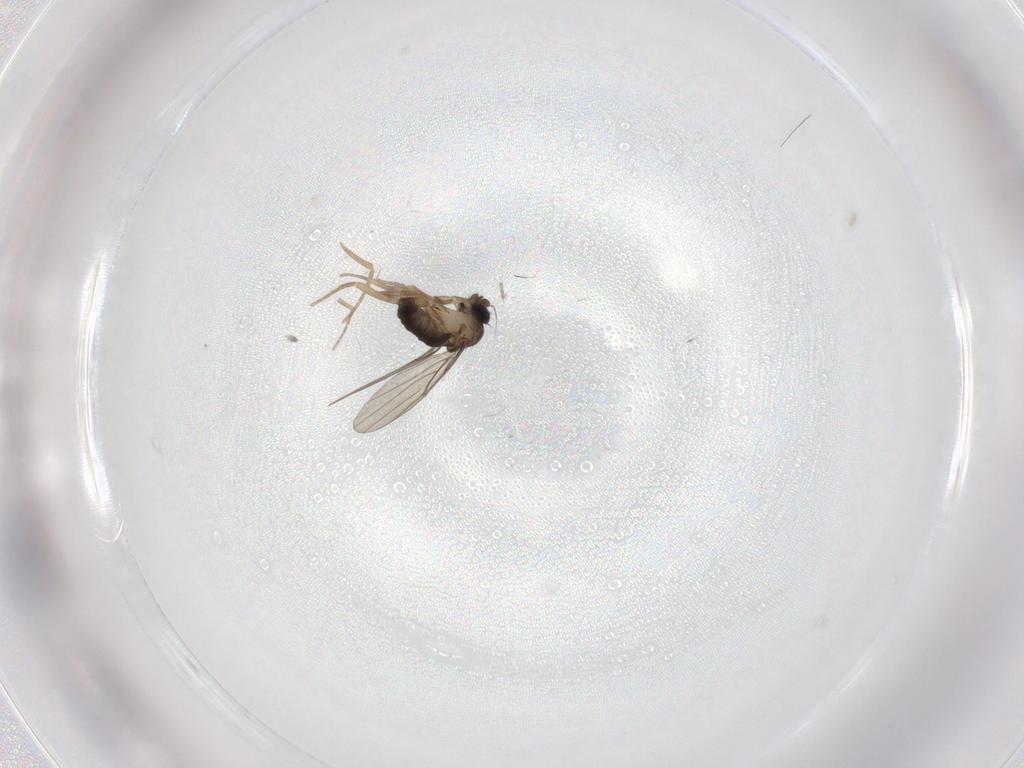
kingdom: Animalia
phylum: Arthropoda
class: Insecta
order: Diptera
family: Phoridae
